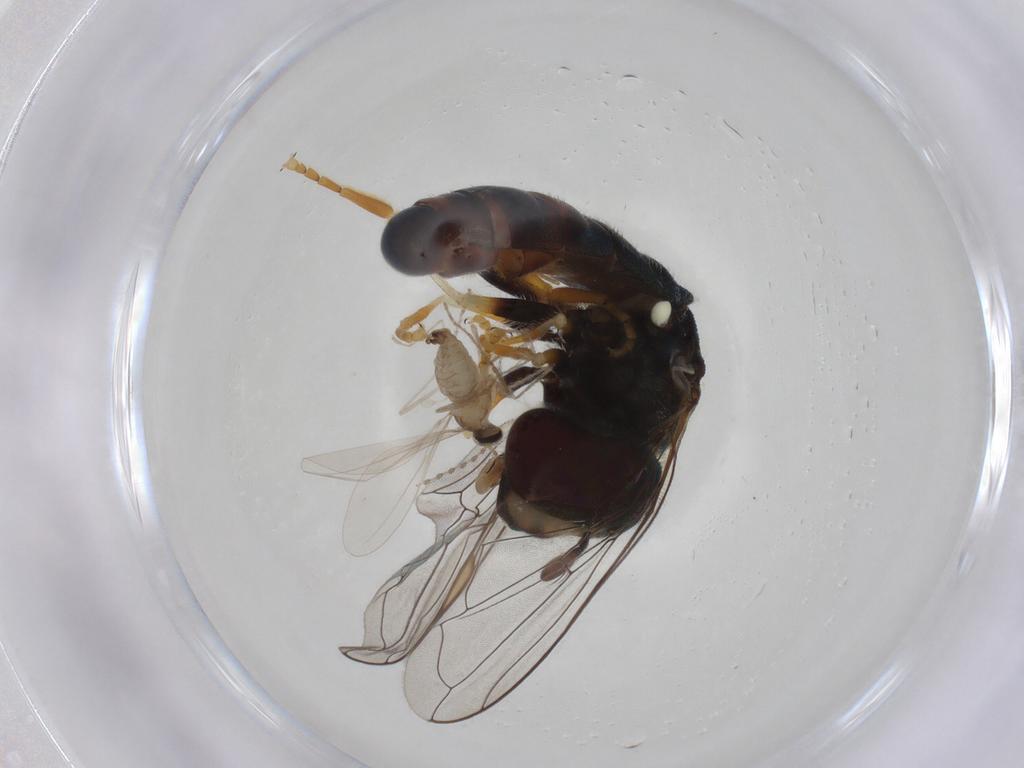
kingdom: Animalia
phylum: Arthropoda
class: Insecta
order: Diptera
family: Syrphidae
